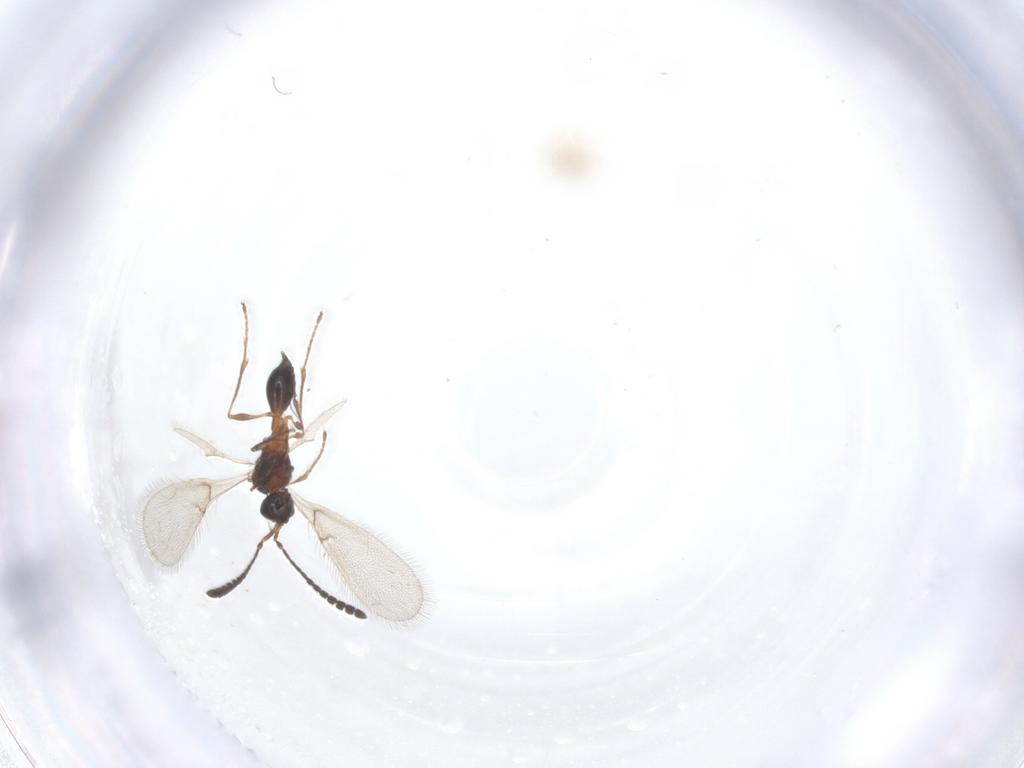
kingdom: Animalia
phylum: Arthropoda
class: Insecta
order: Hymenoptera
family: Diapriidae
